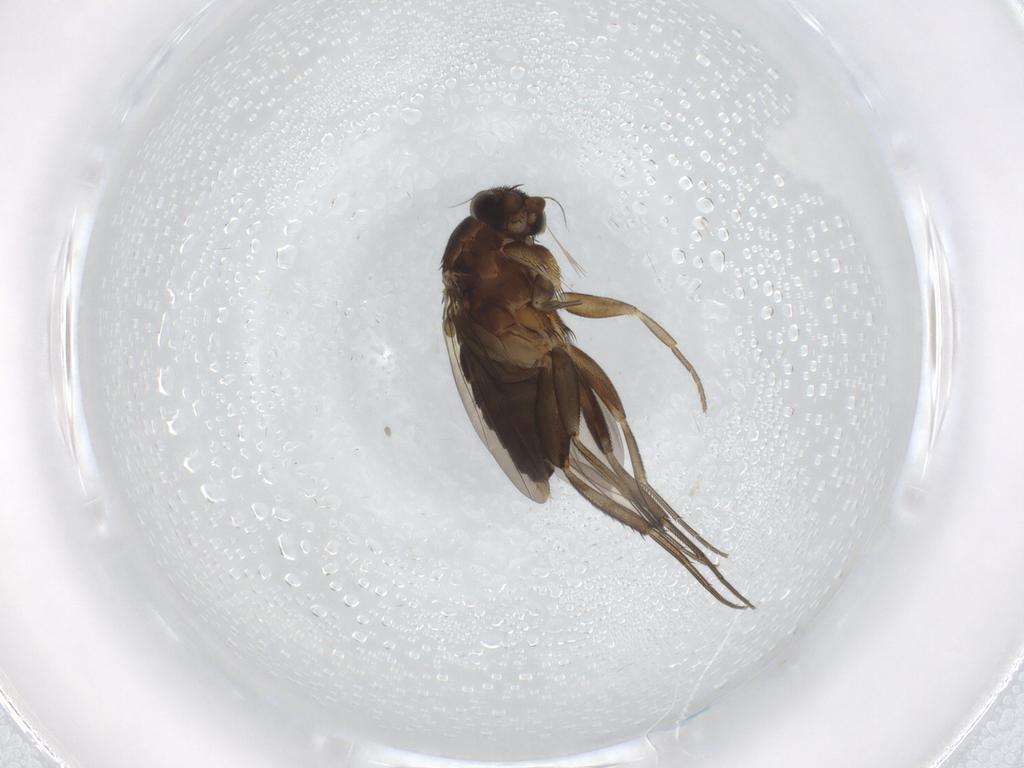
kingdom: Animalia
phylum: Arthropoda
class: Insecta
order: Diptera
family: Phoridae
